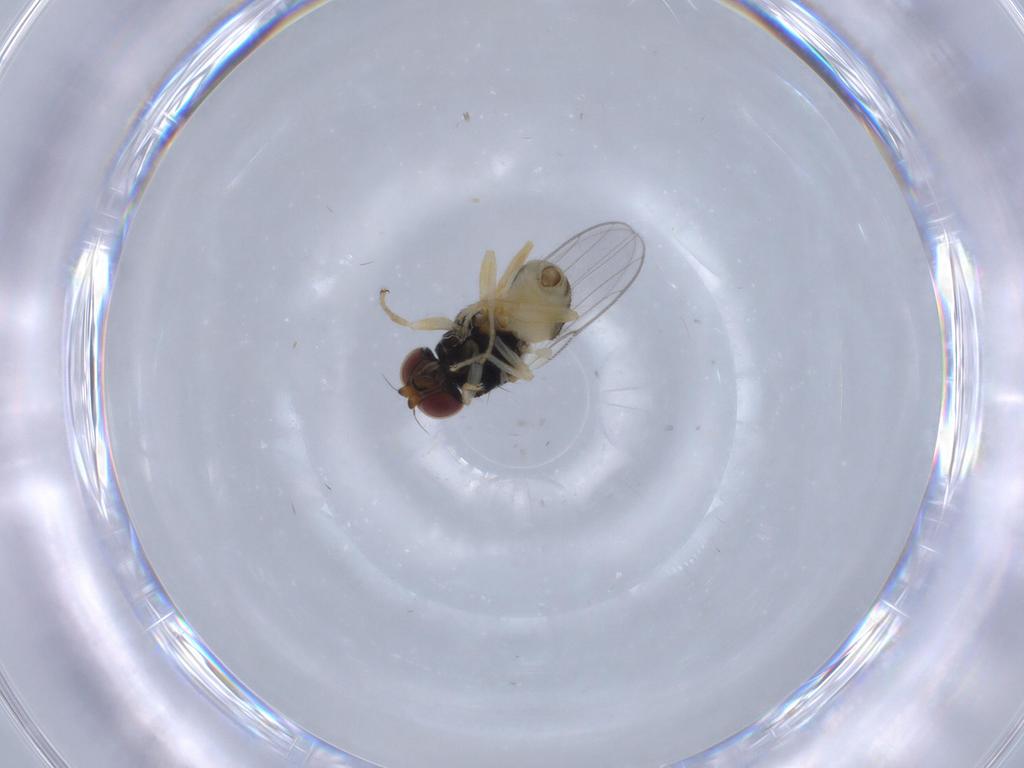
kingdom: Animalia
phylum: Arthropoda
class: Insecta
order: Diptera
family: Chloropidae
